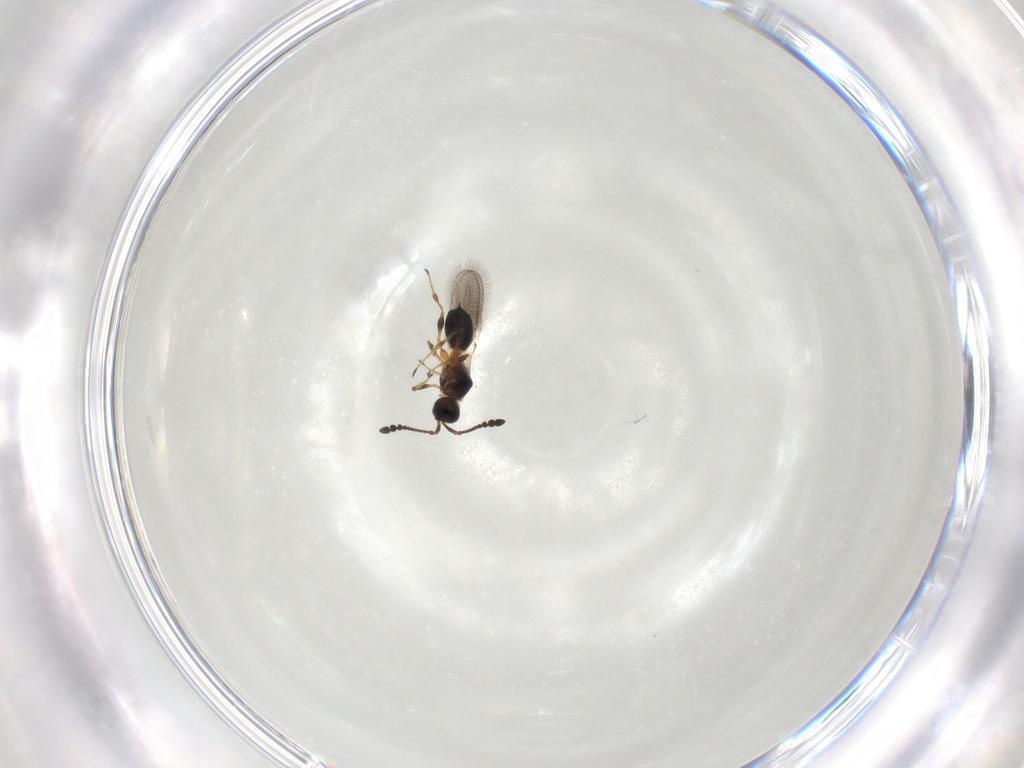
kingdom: Animalia
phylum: Arthropoda
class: Insecta
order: Hymenoptera
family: Diapriidae
